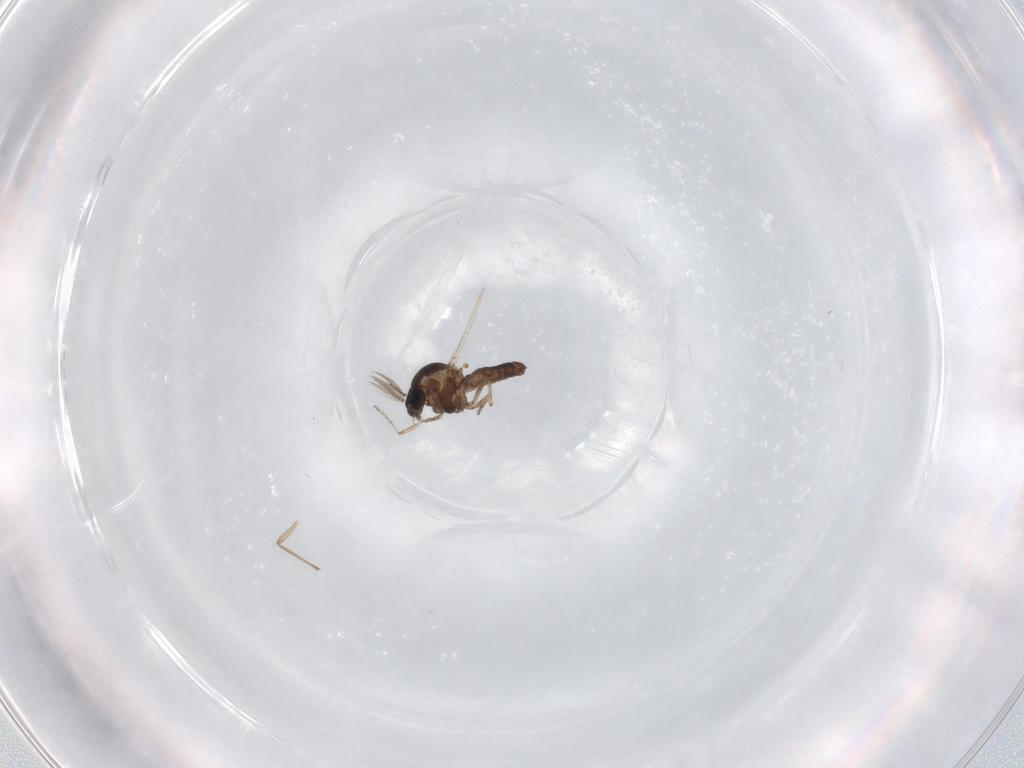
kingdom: Animalia
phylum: Arthropoda
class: Insecta
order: Diptera
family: Ceratopogonidae
